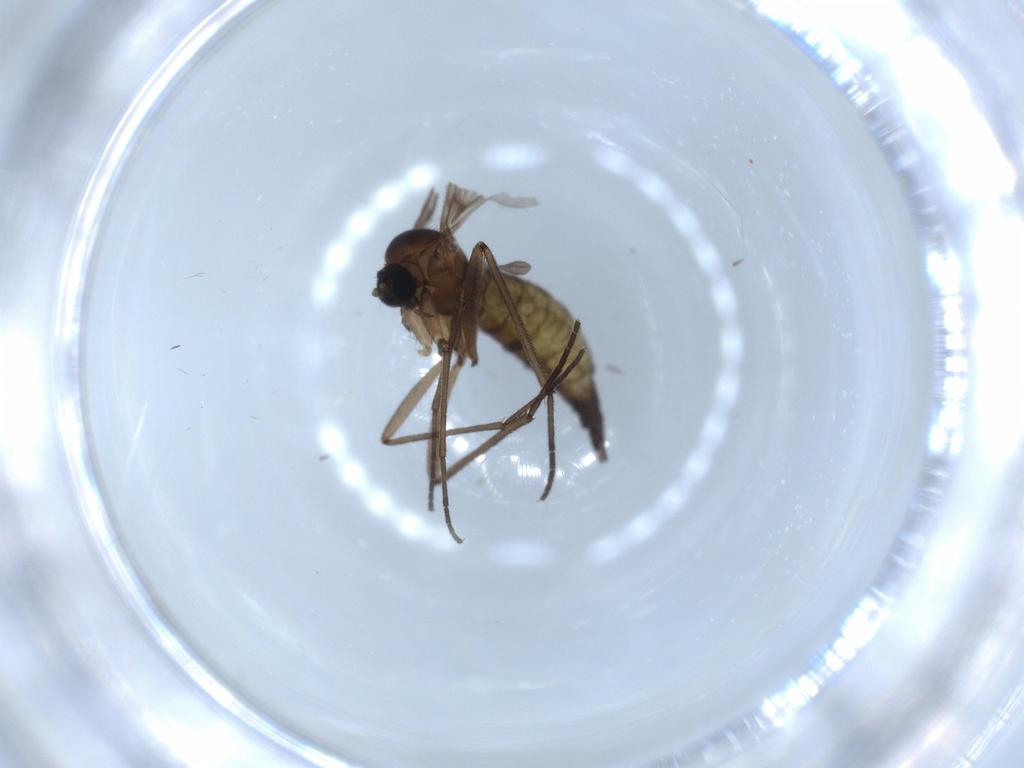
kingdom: Animalia
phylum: Arthropoda
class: Insecta
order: Diptera
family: Sciaridae
